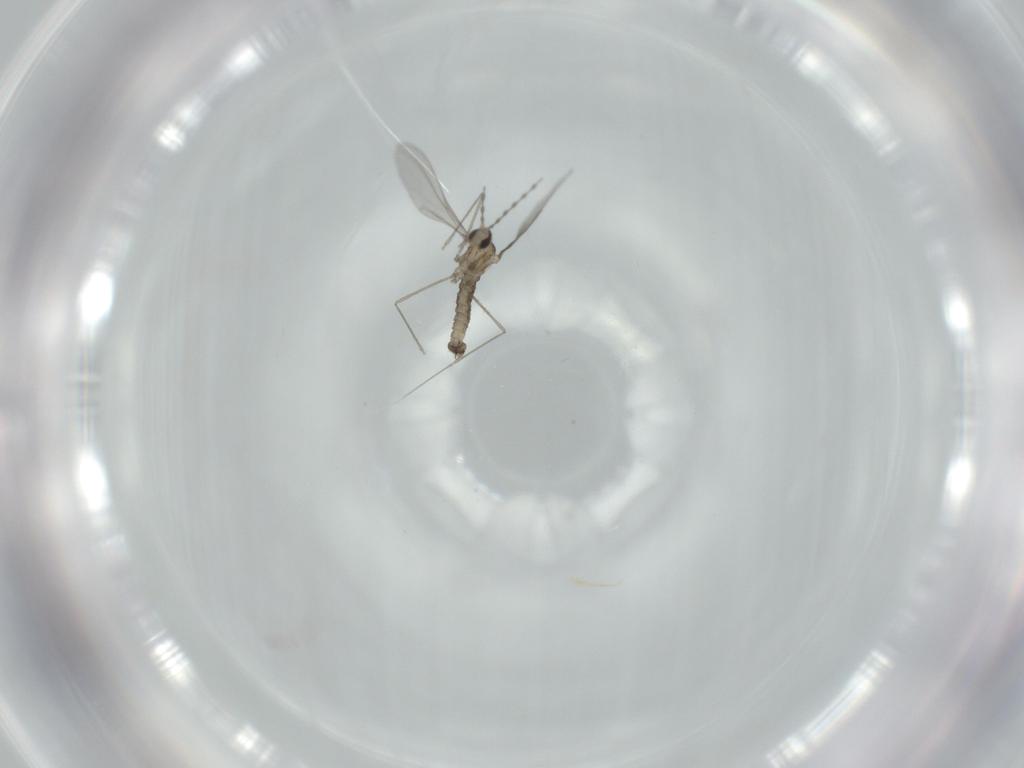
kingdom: Animalia
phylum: Arthropoda
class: Insecta
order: Diptera
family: Cecidomyiidae
